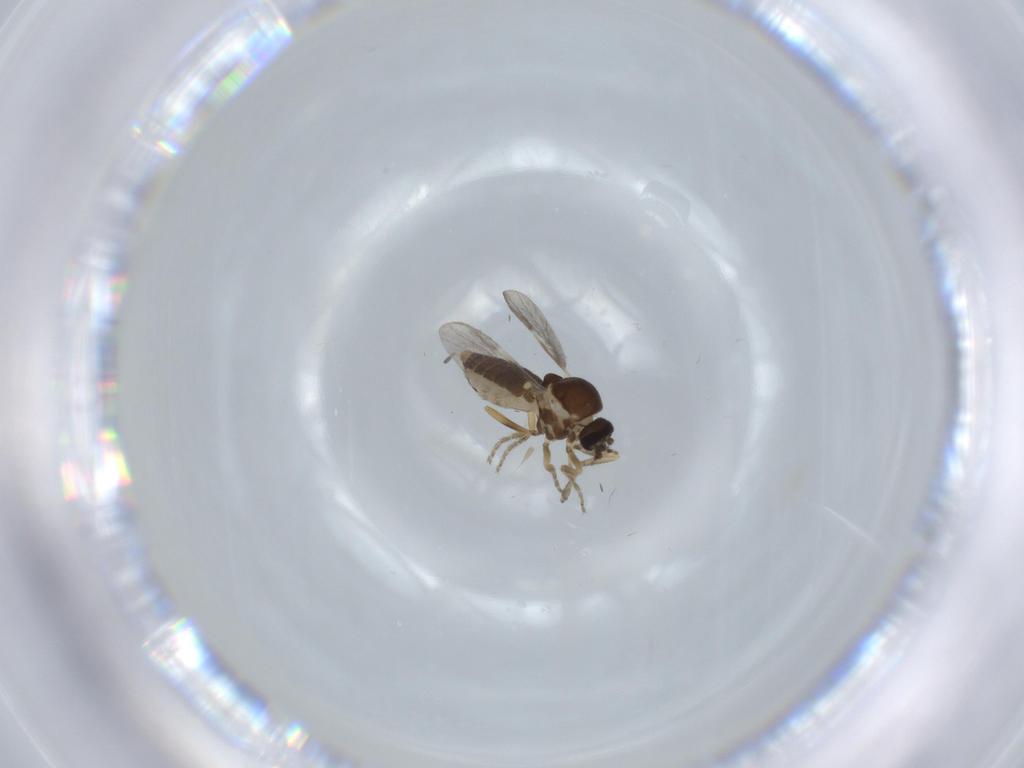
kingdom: Animalia
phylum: Arthropoda
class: Insecta
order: Diptera
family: Ceratopogonidae
